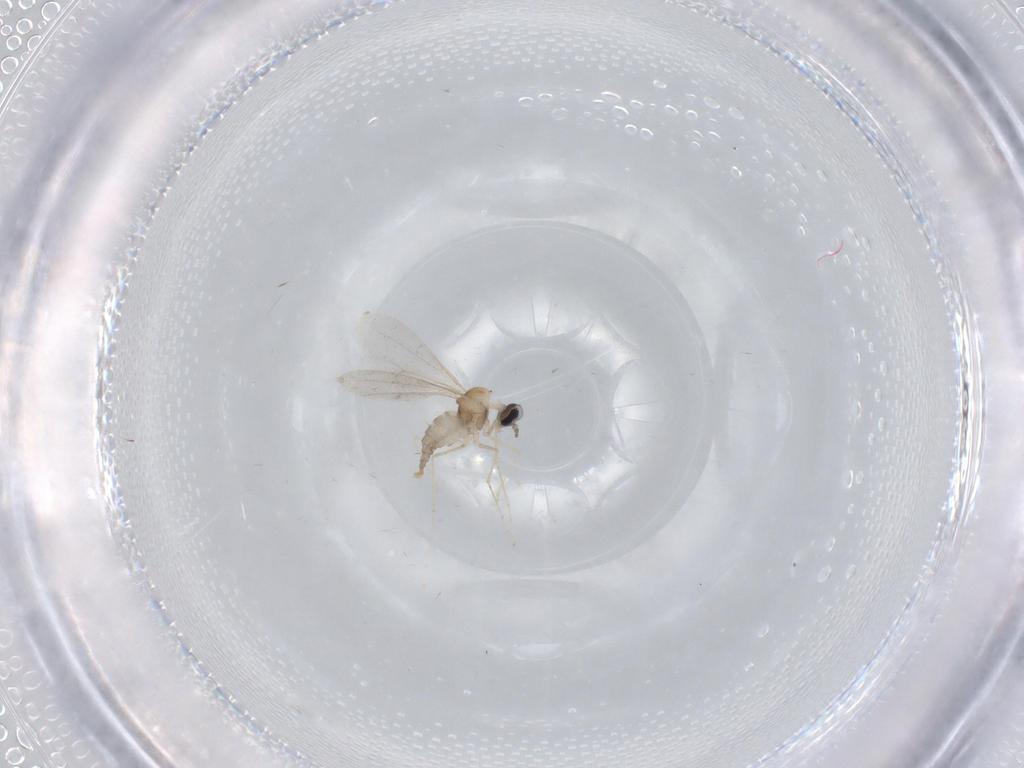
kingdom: Animalia
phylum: Arthropoda
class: Insecta
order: Diptera
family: Cecidomyiidae
